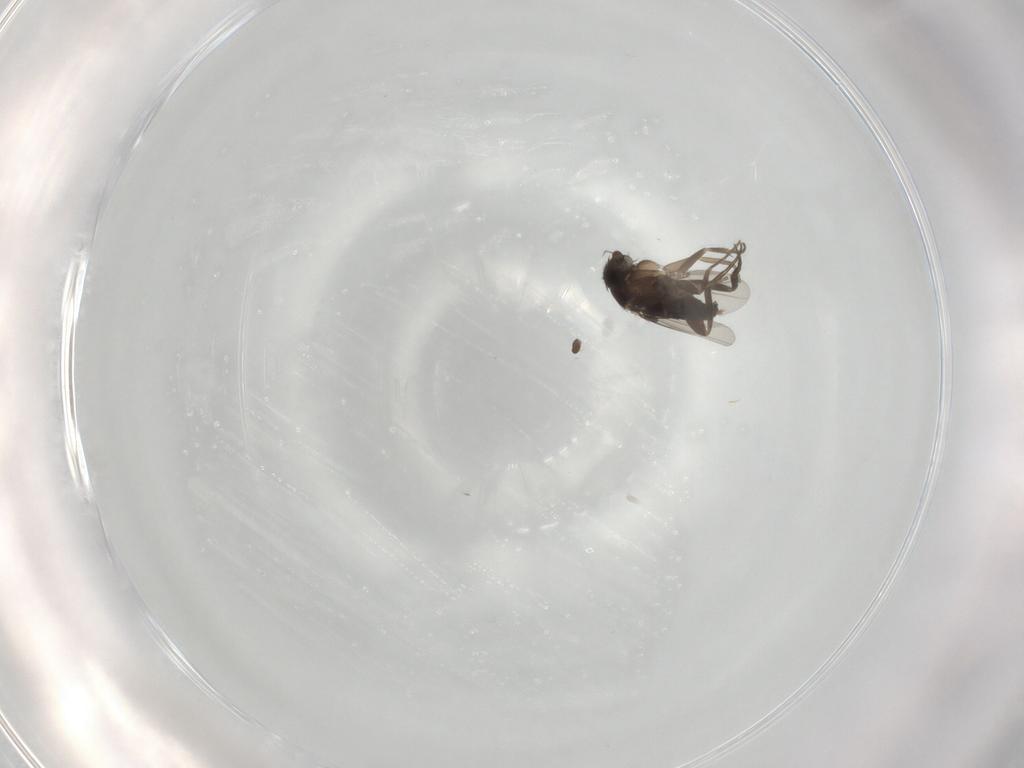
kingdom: Animalia
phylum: Arthropoda
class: Insecta
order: Diptera
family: Phoridae
